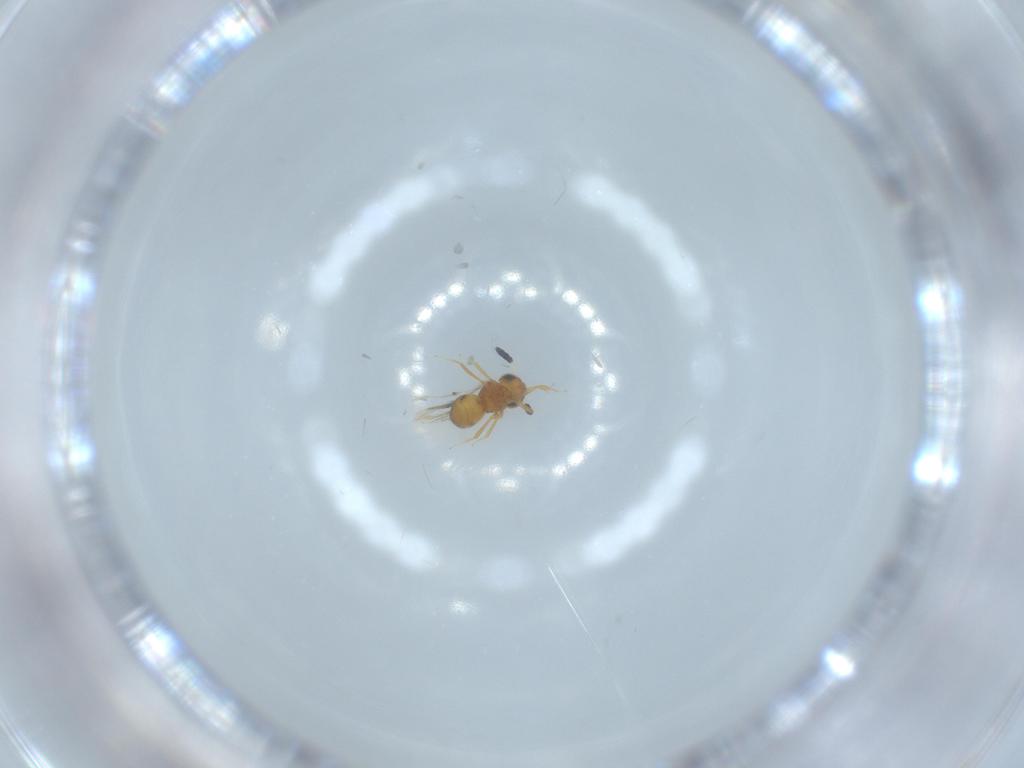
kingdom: Animalia
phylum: Arthropoda
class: Insecta
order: Hymenoptera
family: Scelionidae
